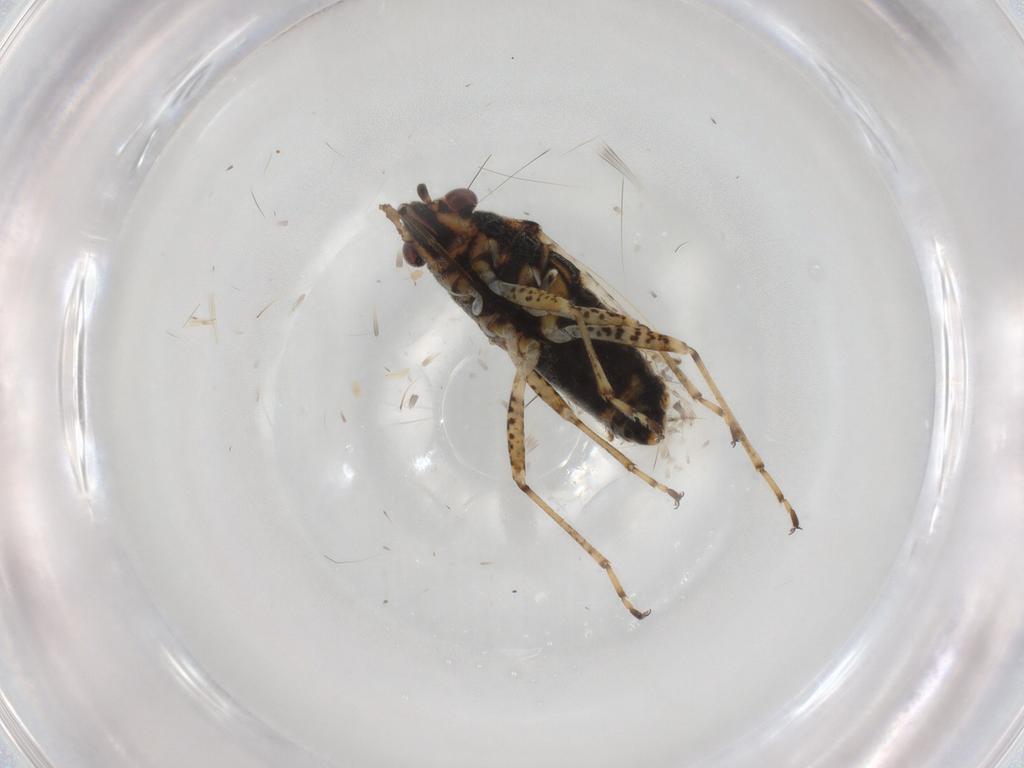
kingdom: Animalia
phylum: Arthropoda
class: Insecta
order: Hemiptera
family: Lygaeidae
